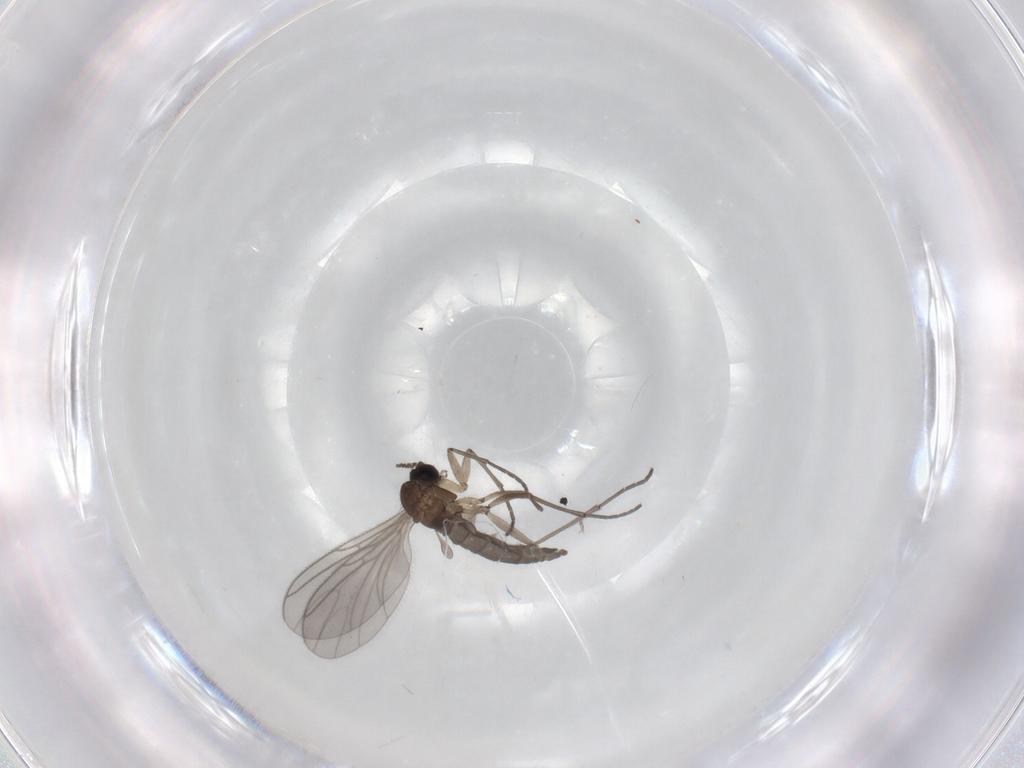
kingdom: Animalia
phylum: Arthropoda
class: Insecta
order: Diptera
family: Sciaridae
